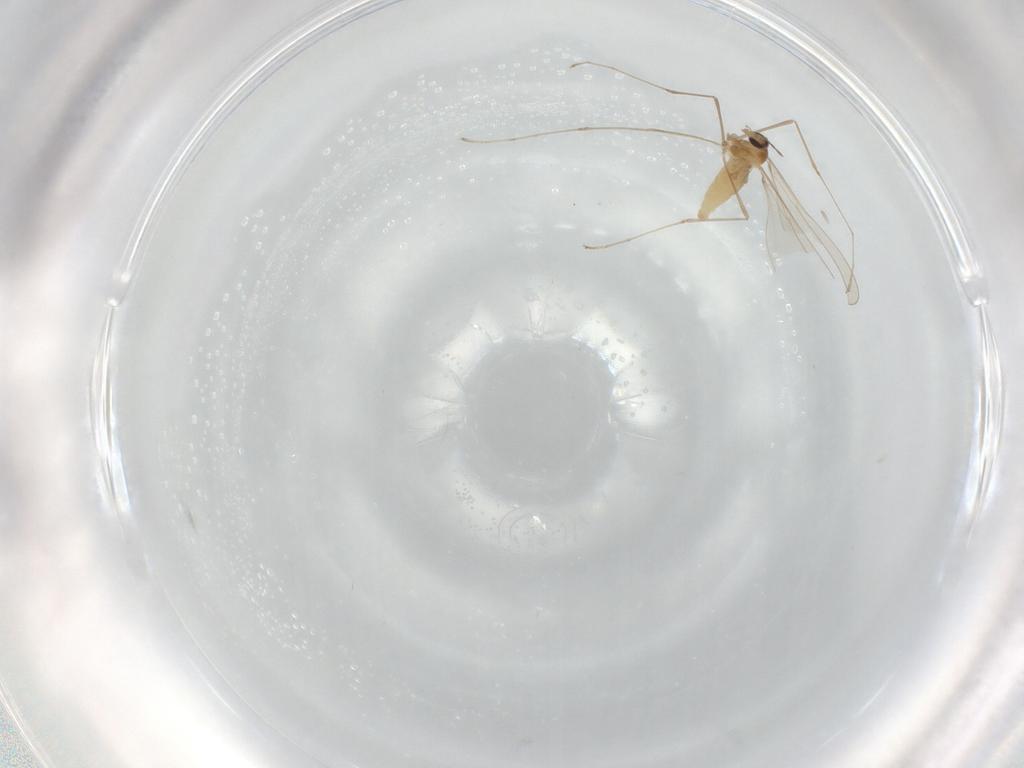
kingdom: Animalia
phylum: Arthropoda
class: Insecta
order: Diptera
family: Cecidomyiidae
